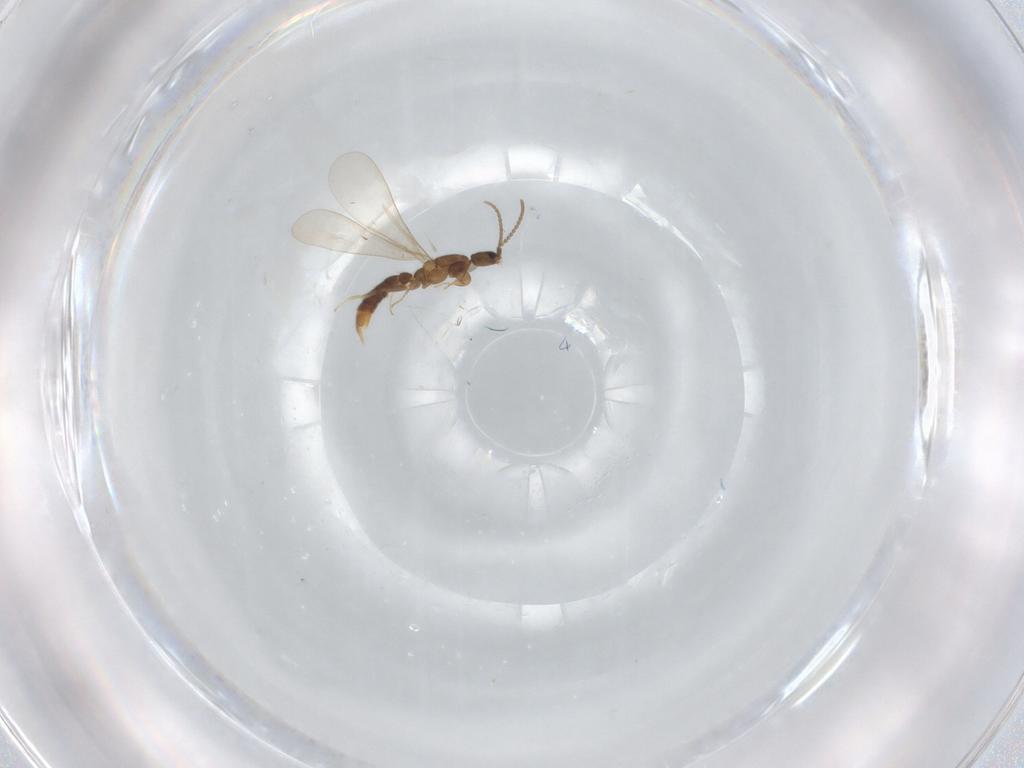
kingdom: Animalia
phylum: Arthropoda
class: Insecta
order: Hymenoptera
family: Formicidae
